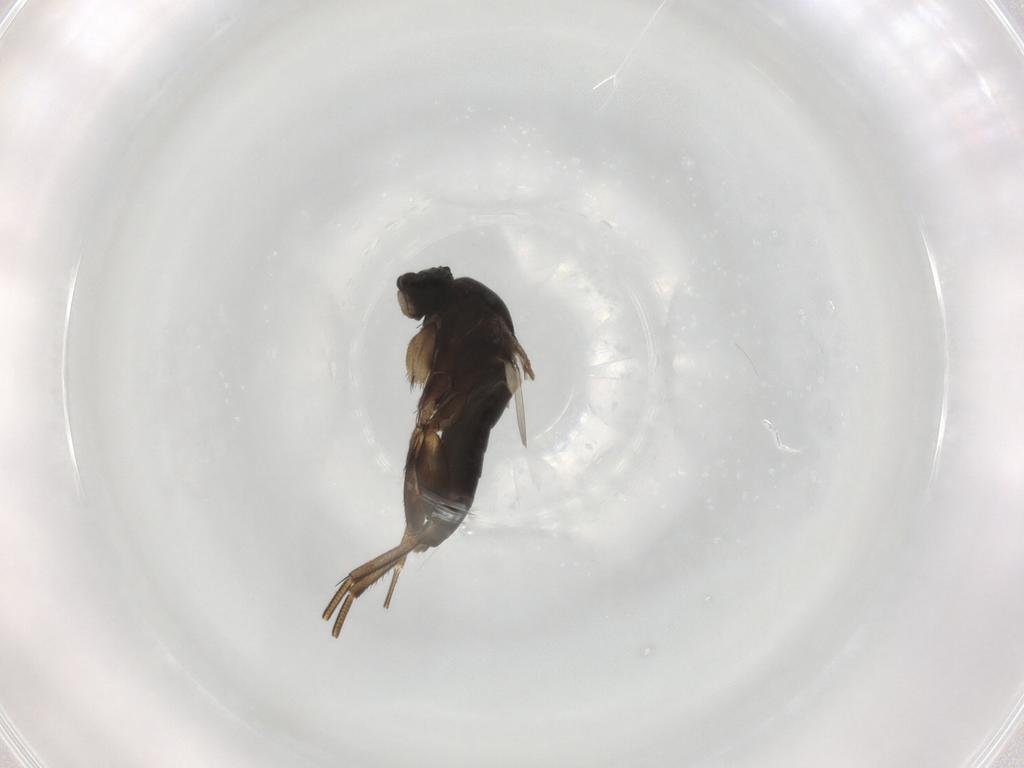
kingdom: Animalia
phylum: Arthropoda
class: Insecta
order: Diptera
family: Phoridae
